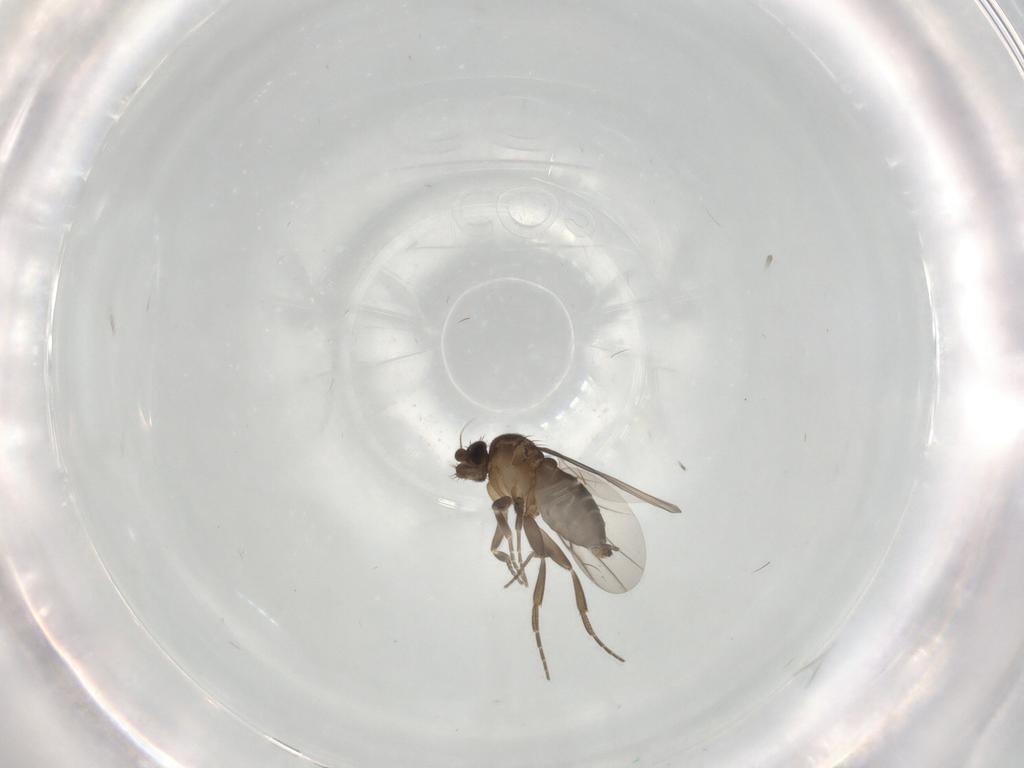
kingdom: Animalia
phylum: Arthropoda
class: Insecta
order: Diptera
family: Phoridae
